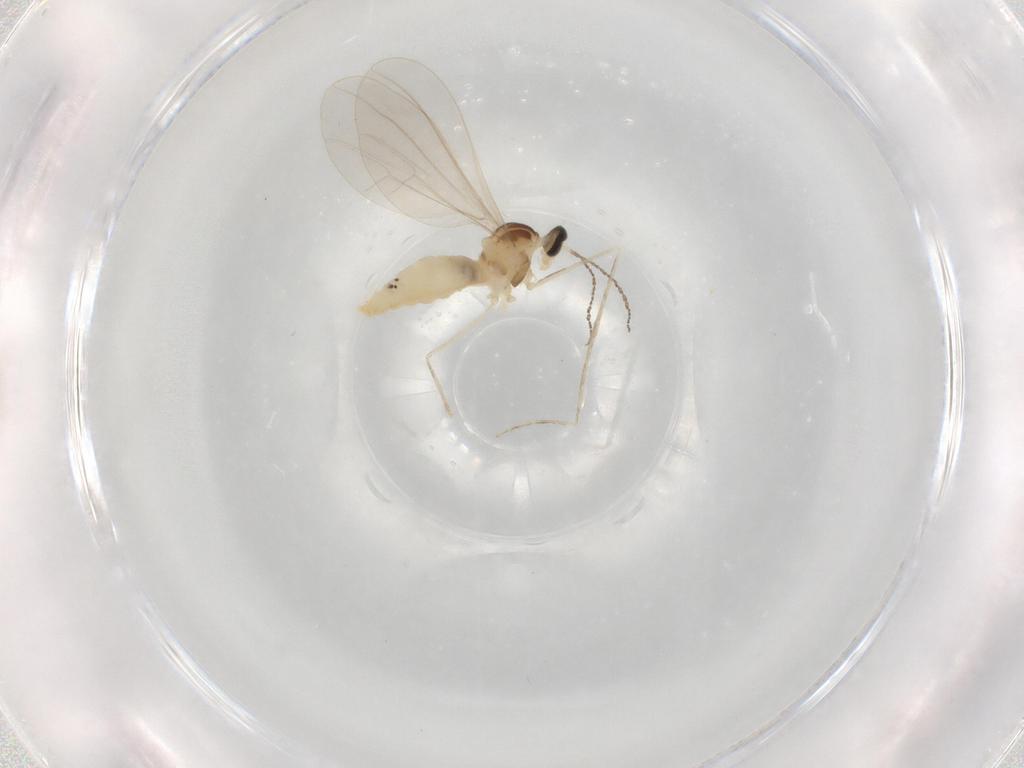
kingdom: Animalia
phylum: Arthropoda
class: Insecta
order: Diptera
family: Cecidomyiidae
